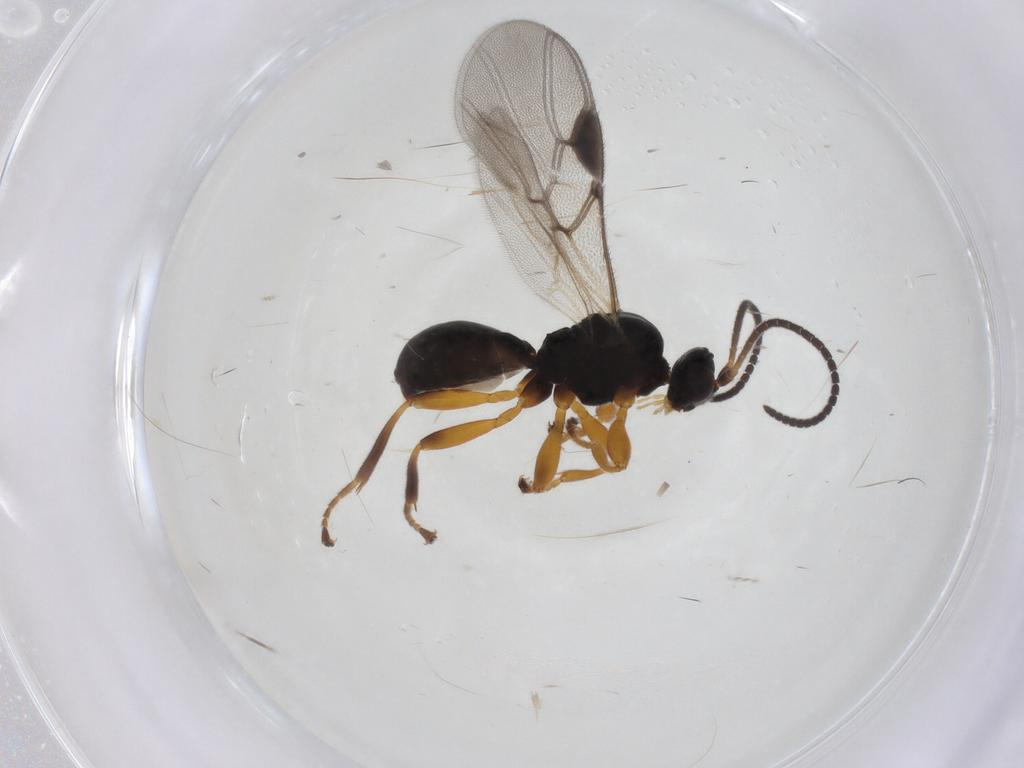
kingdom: Animalia
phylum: Arthropoda
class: Insecta
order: Hymenoptera
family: Braconidae
